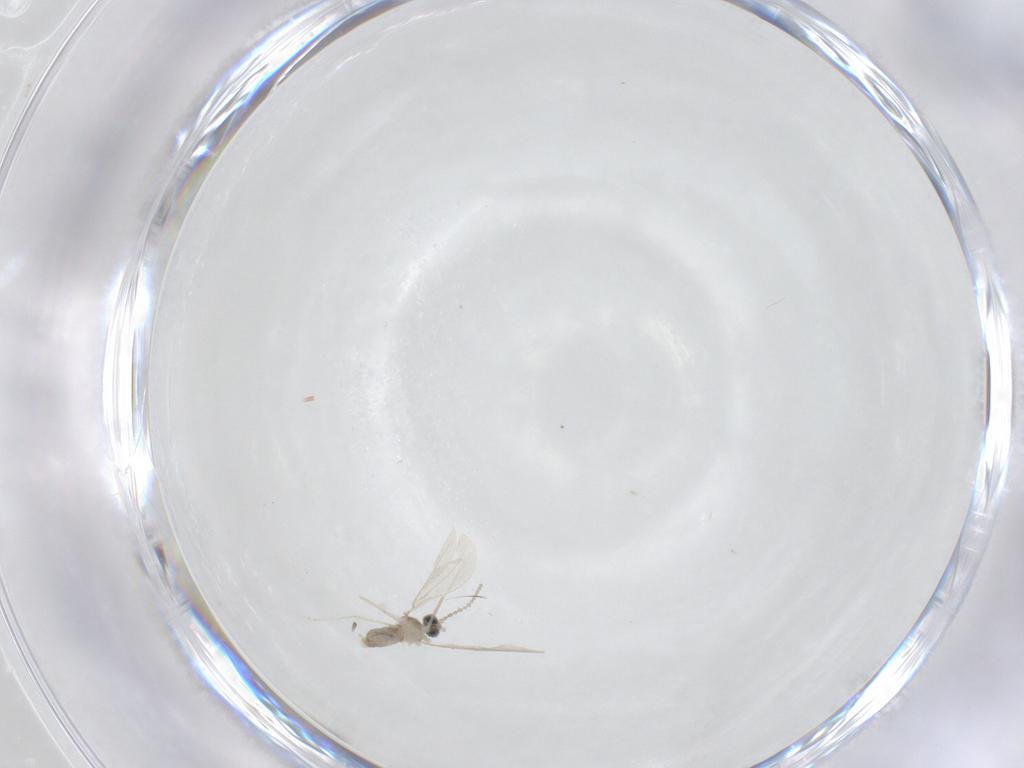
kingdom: Animalia
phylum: Arthropoda
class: Insecta
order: Diptera
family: Cecidomyiidae
